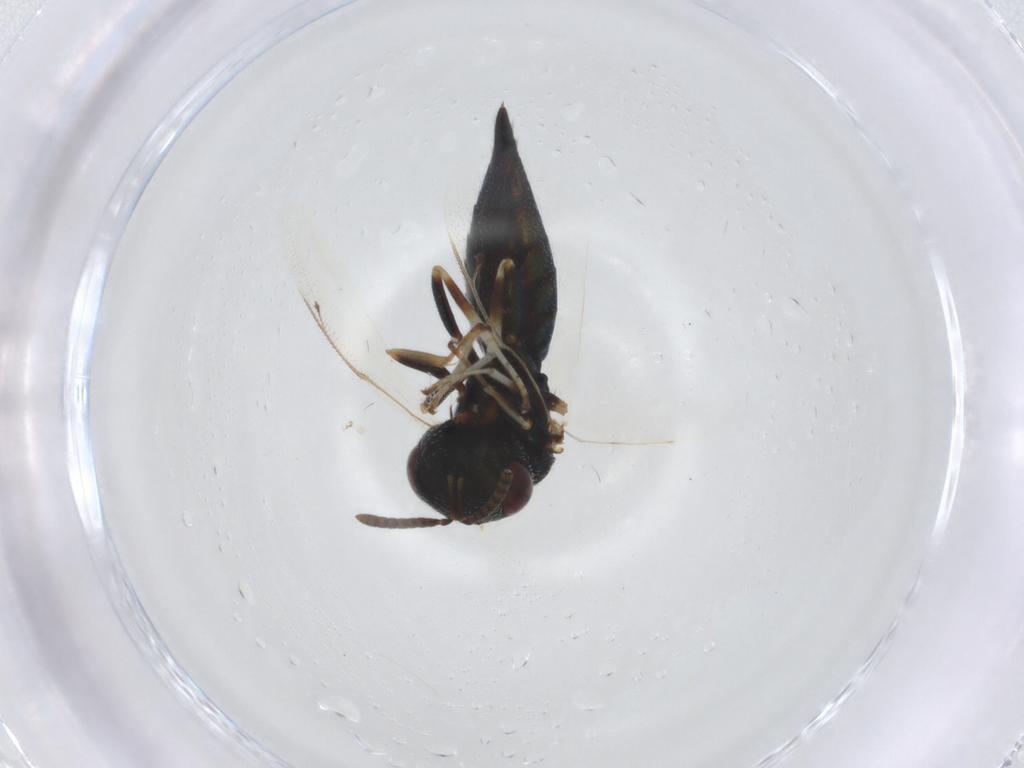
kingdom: Animalia
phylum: Arthropoda
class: Insecta
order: Hymenoptera
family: Pteromalidae
